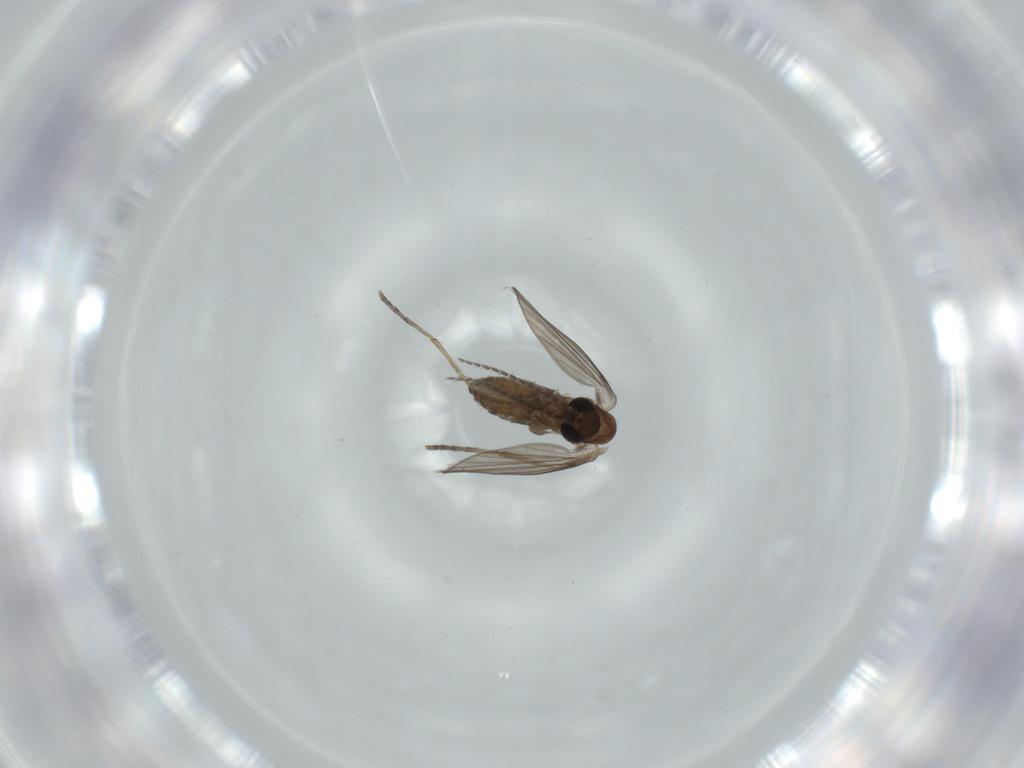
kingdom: Animalia
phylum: Arthropoda
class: Insecta
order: Diptera
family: Psychodidae
